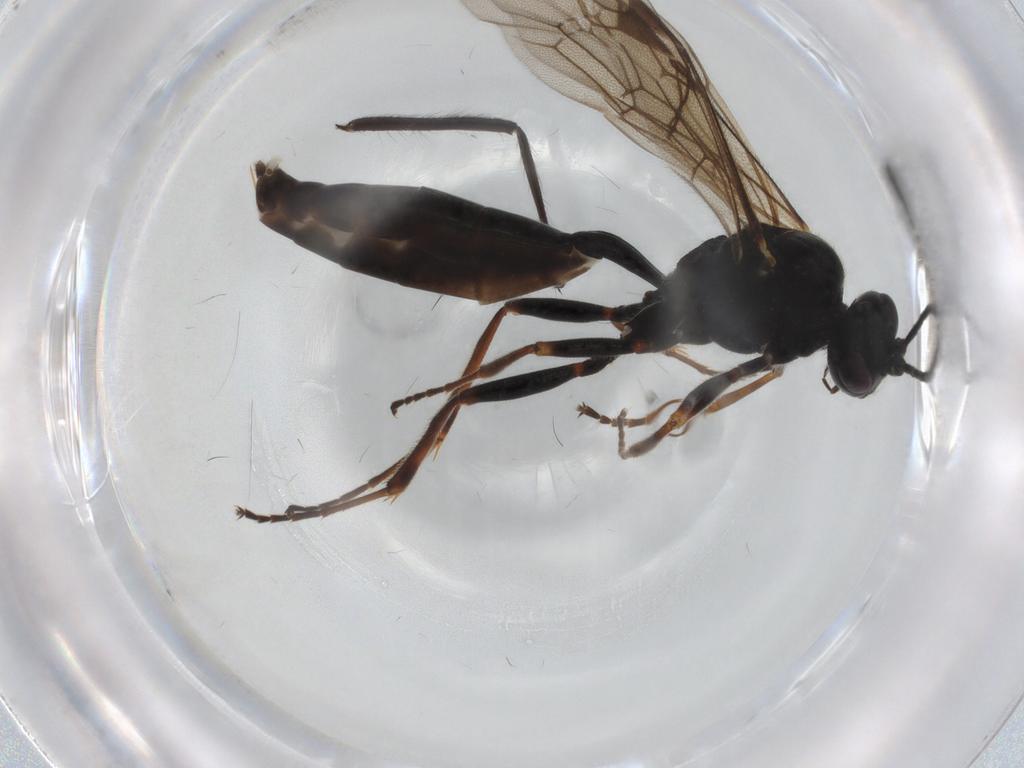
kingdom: Animalia
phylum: Arthropoda
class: Insecta
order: Hymenoptera
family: Ichneumonidae
